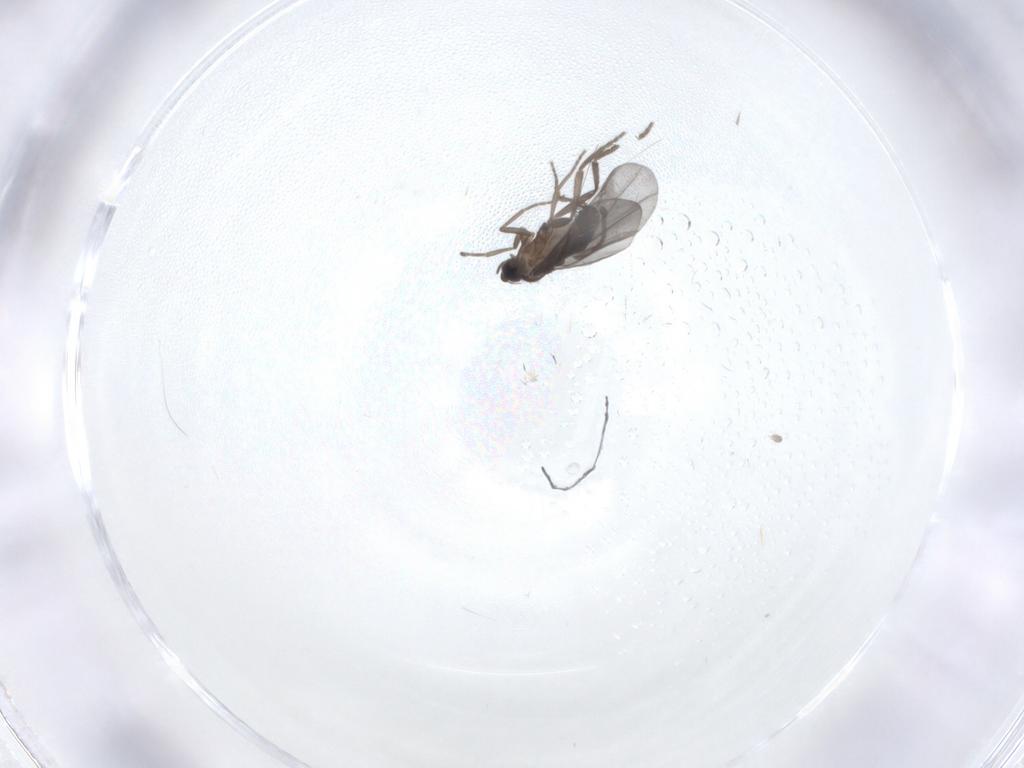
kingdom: Animalia
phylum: Arthropoda
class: Insecta
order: Diptera
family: Phoridae
